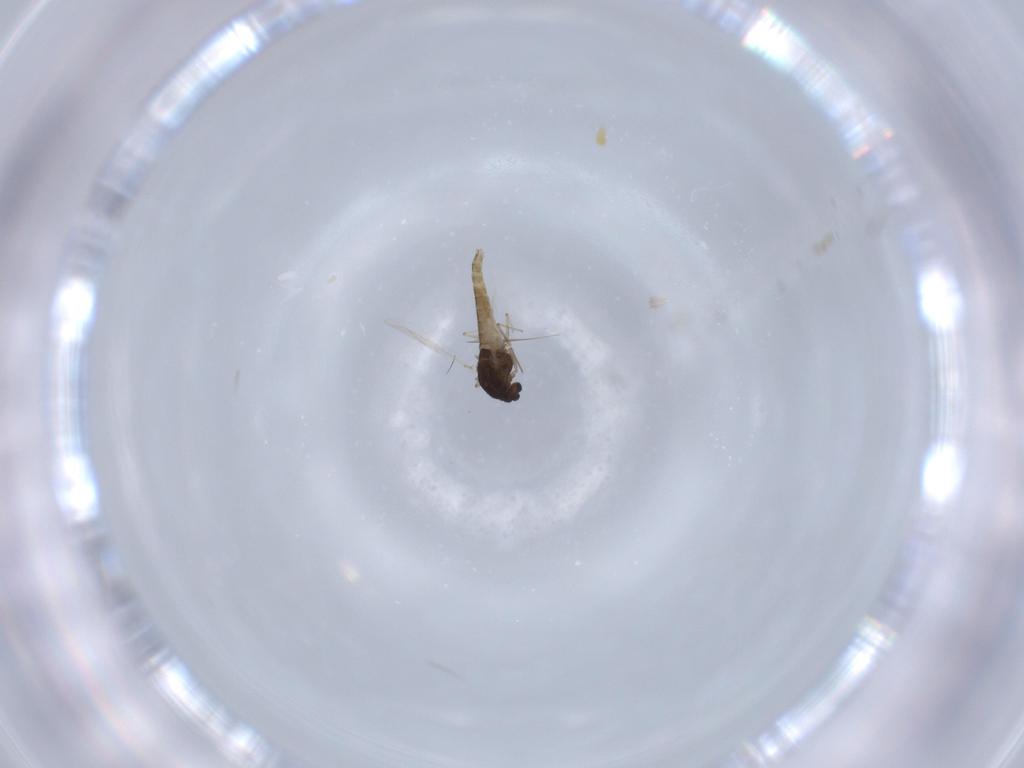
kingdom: Animalia
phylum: Arthropoda
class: Insecta
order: Diptera
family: Chironomidae
